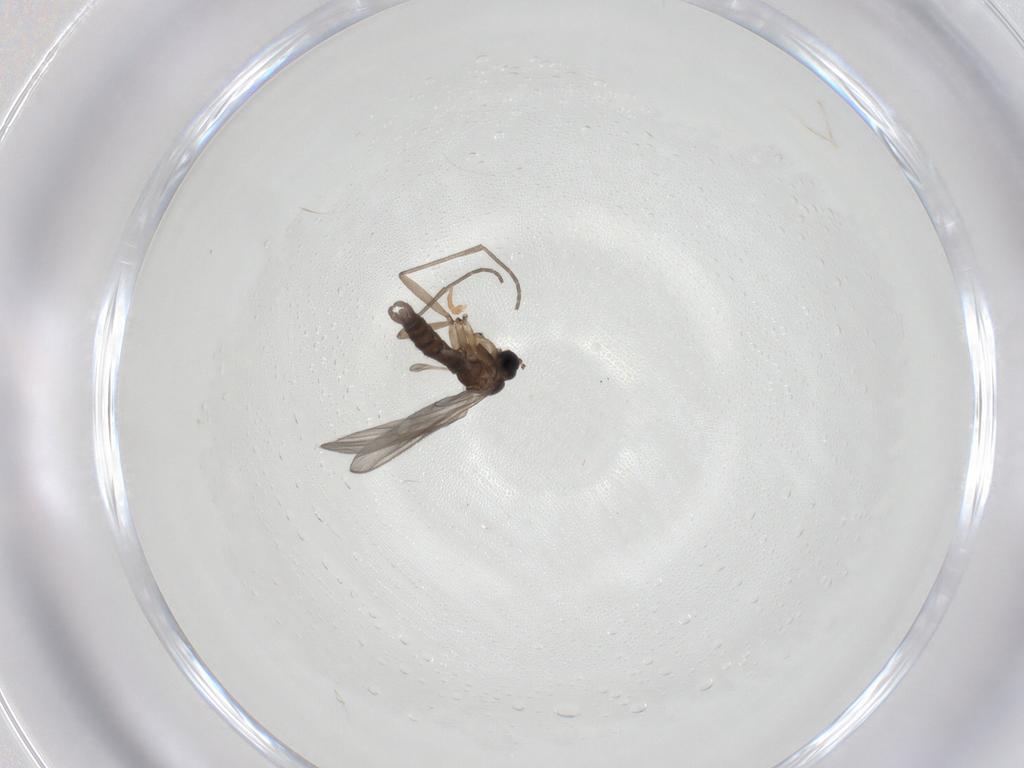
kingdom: Animalia
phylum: Arthropoda
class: Insecta
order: Diptera
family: Sciaridae
